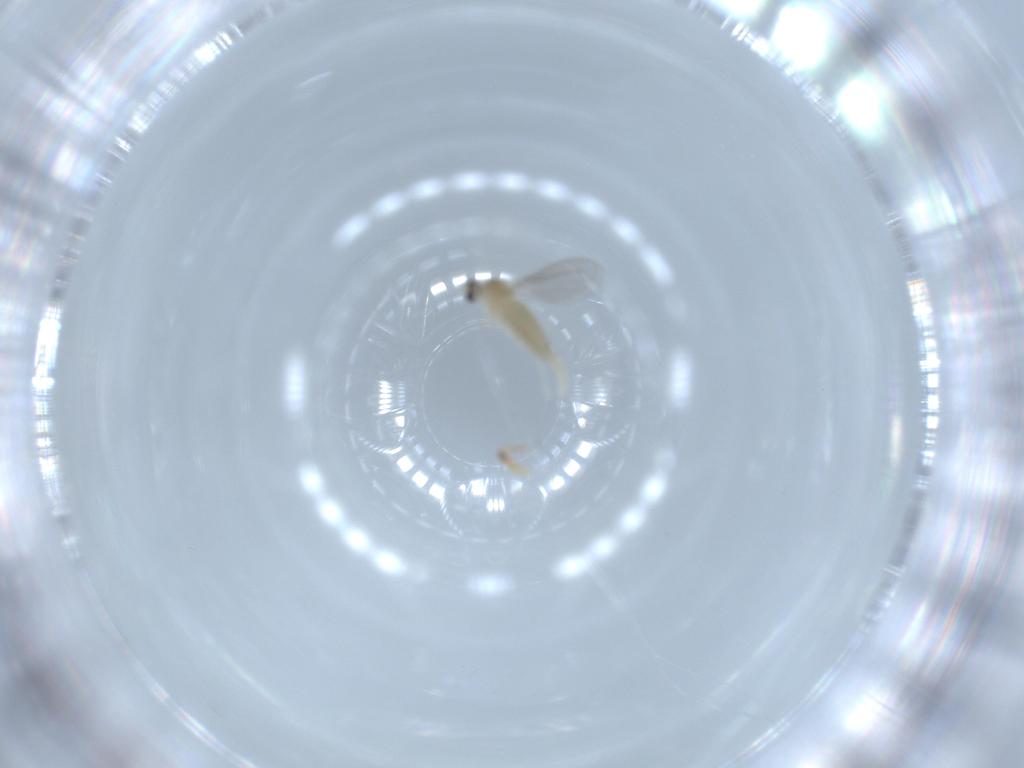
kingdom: Animalia
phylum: Arthropoda
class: Insecta
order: Diptera
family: Cecidomyiidae
